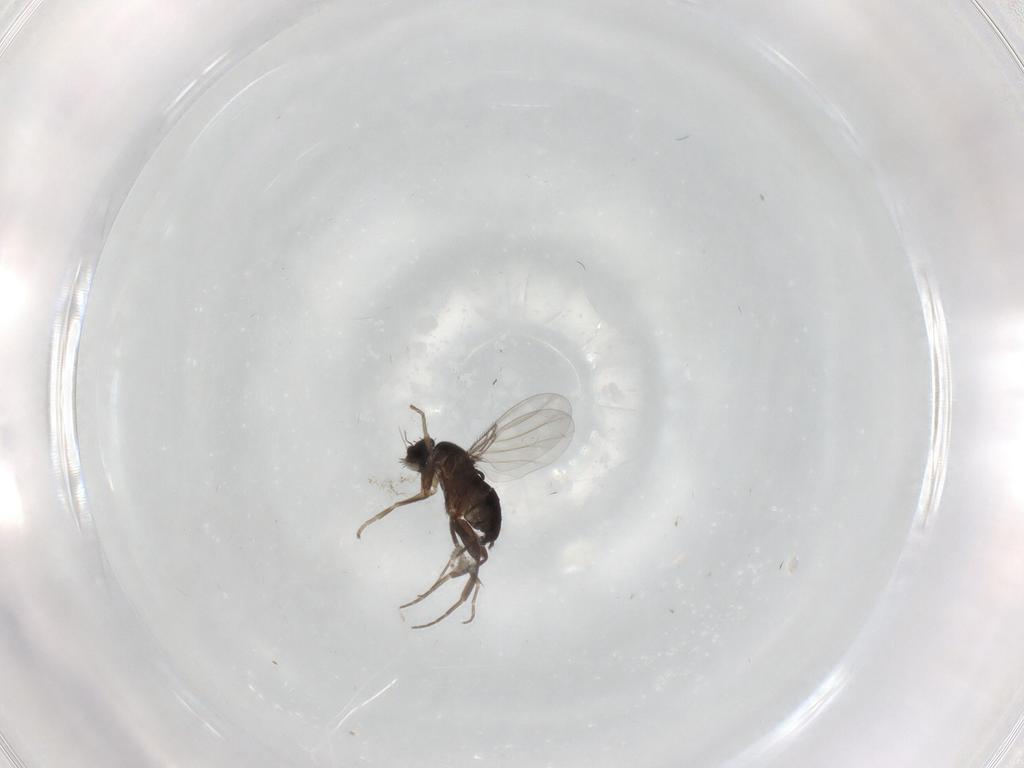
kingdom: Animalia
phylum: Arthropoda
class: Insecta
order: Diptera
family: Phoridae
